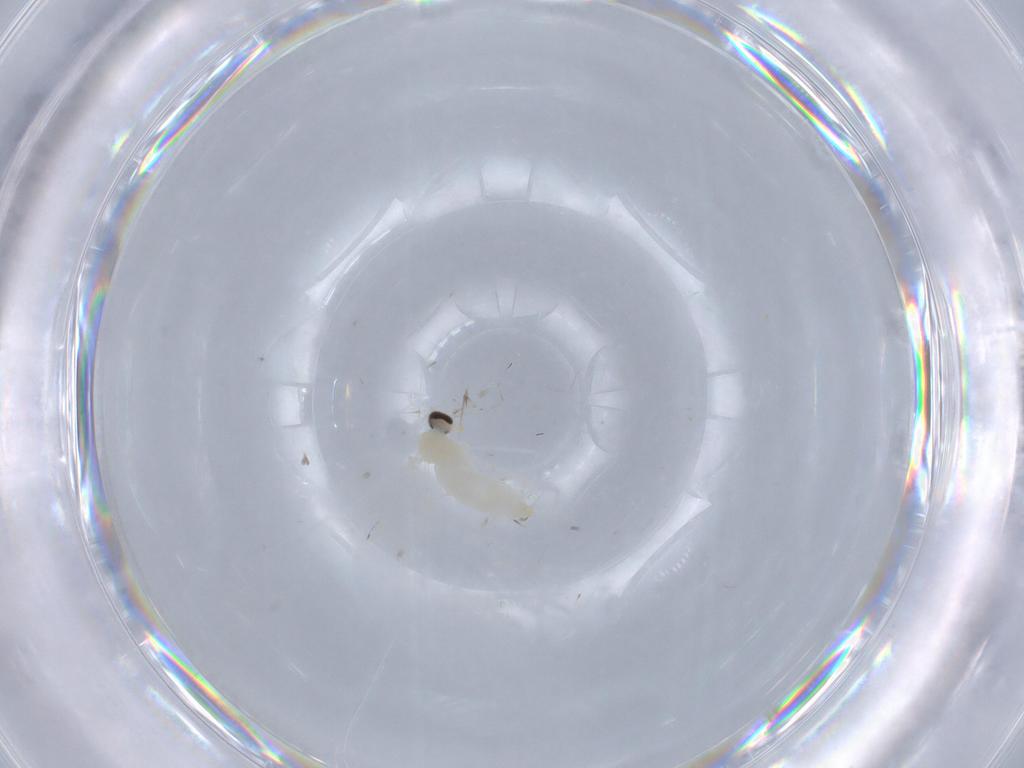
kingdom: Animalia
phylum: Arthropoda
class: Insecta
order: Diptera
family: Cecidomyiidae
